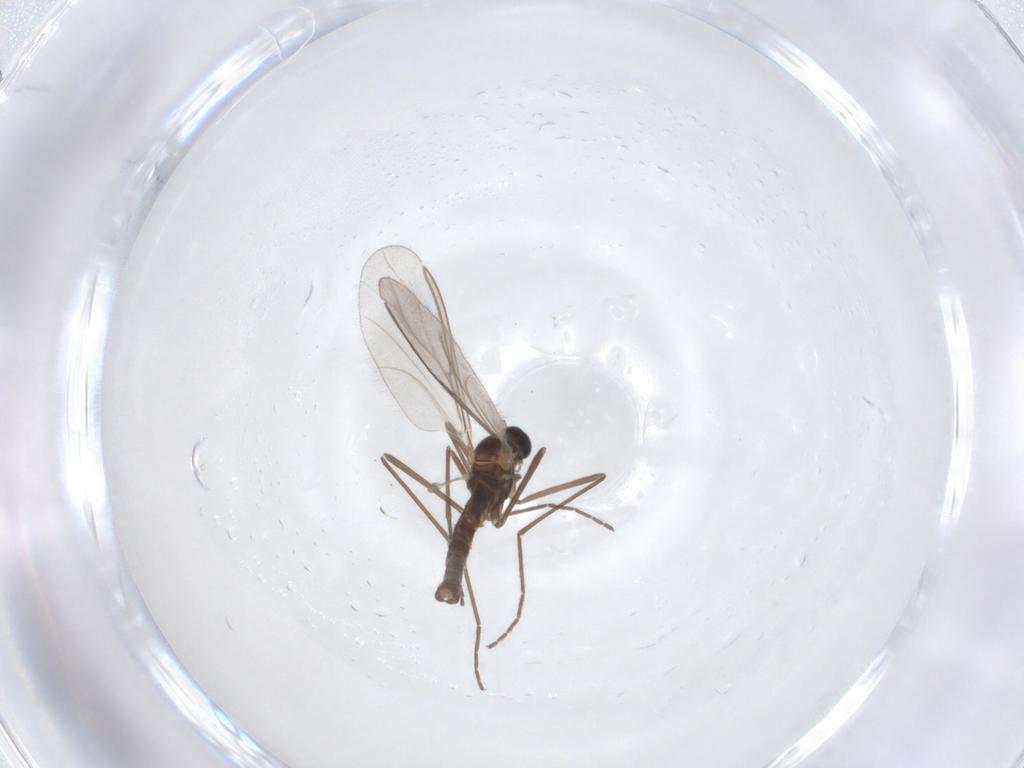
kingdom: Animalia
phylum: Arthropoda
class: Insecta
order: Diptera
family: Cecidomyiidae
